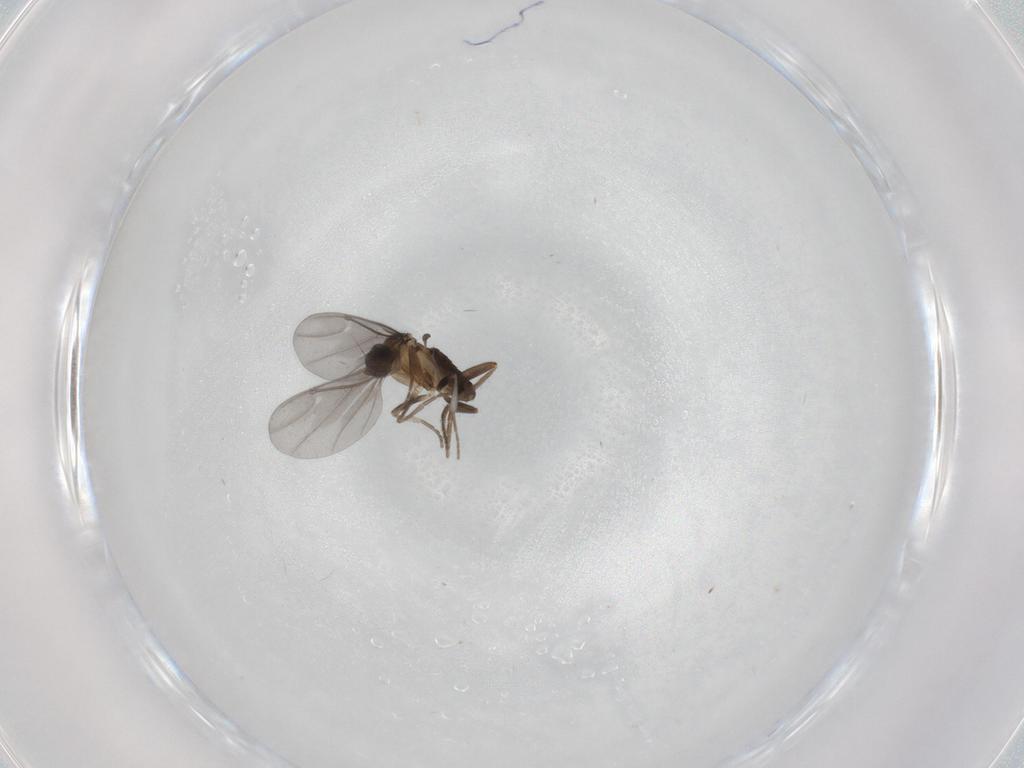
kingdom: Animalia
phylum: Arthropoda
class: Insecta
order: Diptera
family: Phoridae
